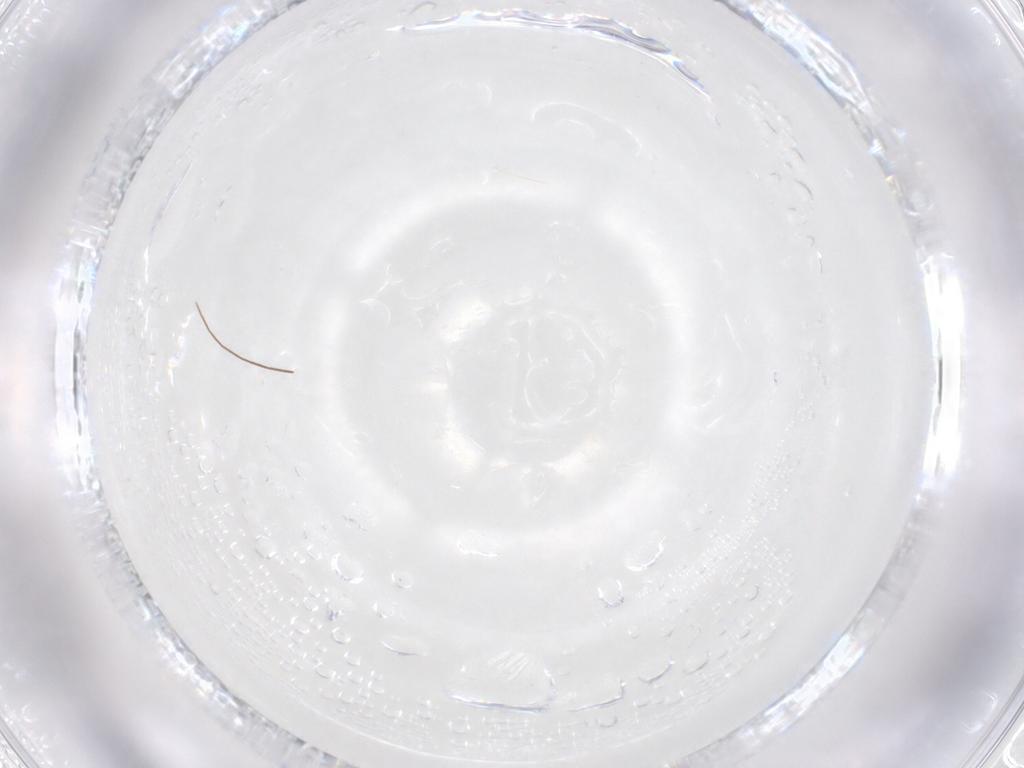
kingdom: Animalia
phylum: Arthropoda
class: Insecta
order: Diptera
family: Cecidomyiidae
